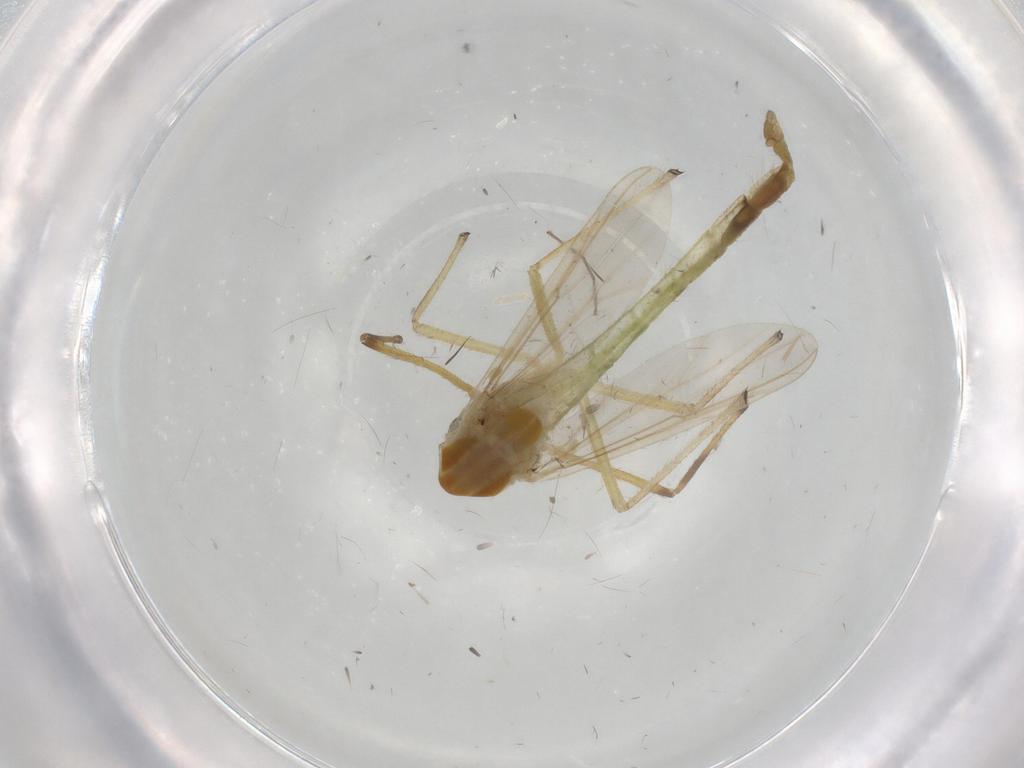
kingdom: Animalia
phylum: Arthropoda
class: Insecta
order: Diptera
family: Chironomidae
